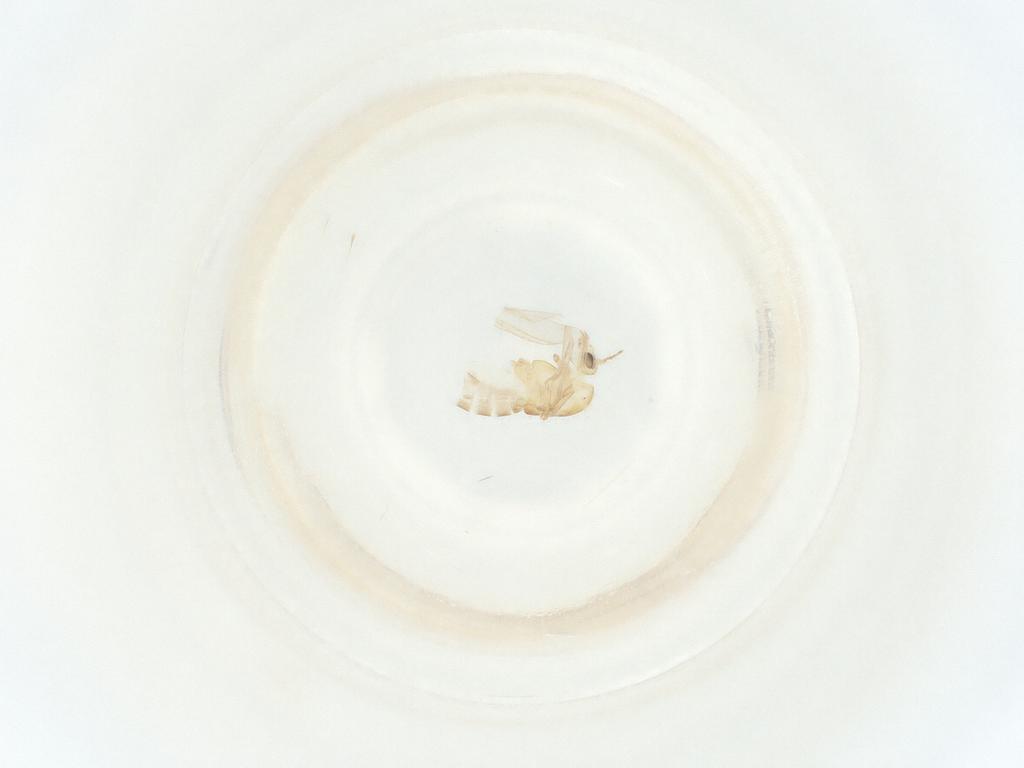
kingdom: Animalia
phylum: Arthropoda
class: Insecta
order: Diptera
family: Chironomidae
